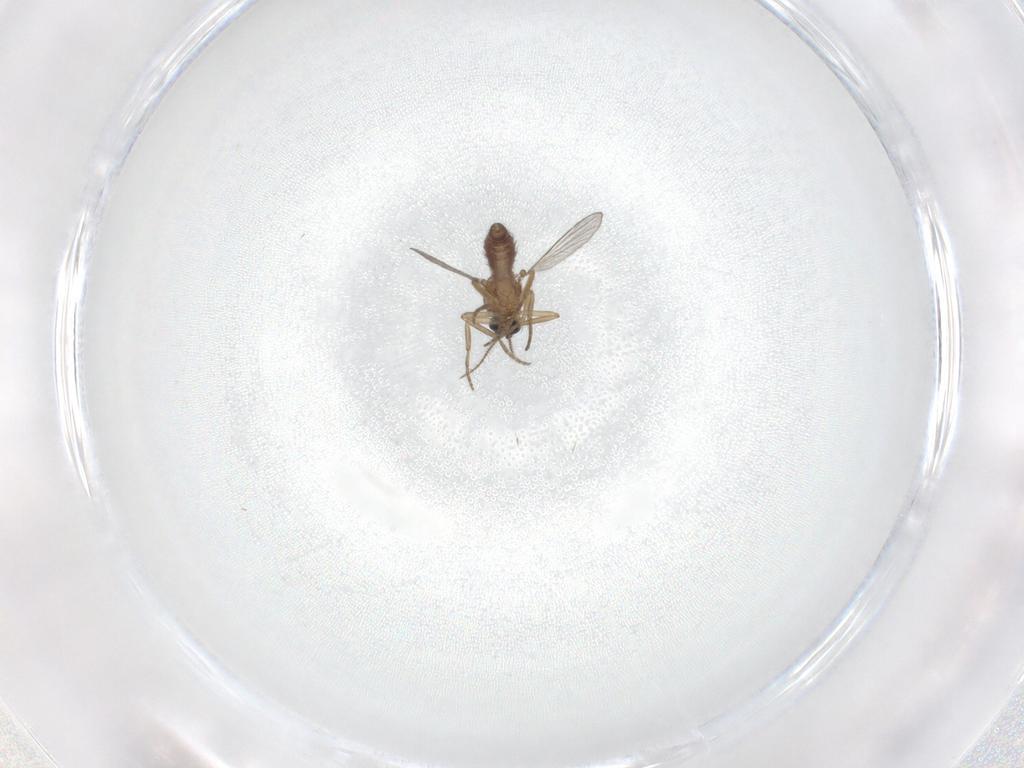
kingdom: Animalia
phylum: Arthropoda
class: Insecta
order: Diptera
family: Ceratopogonidae
